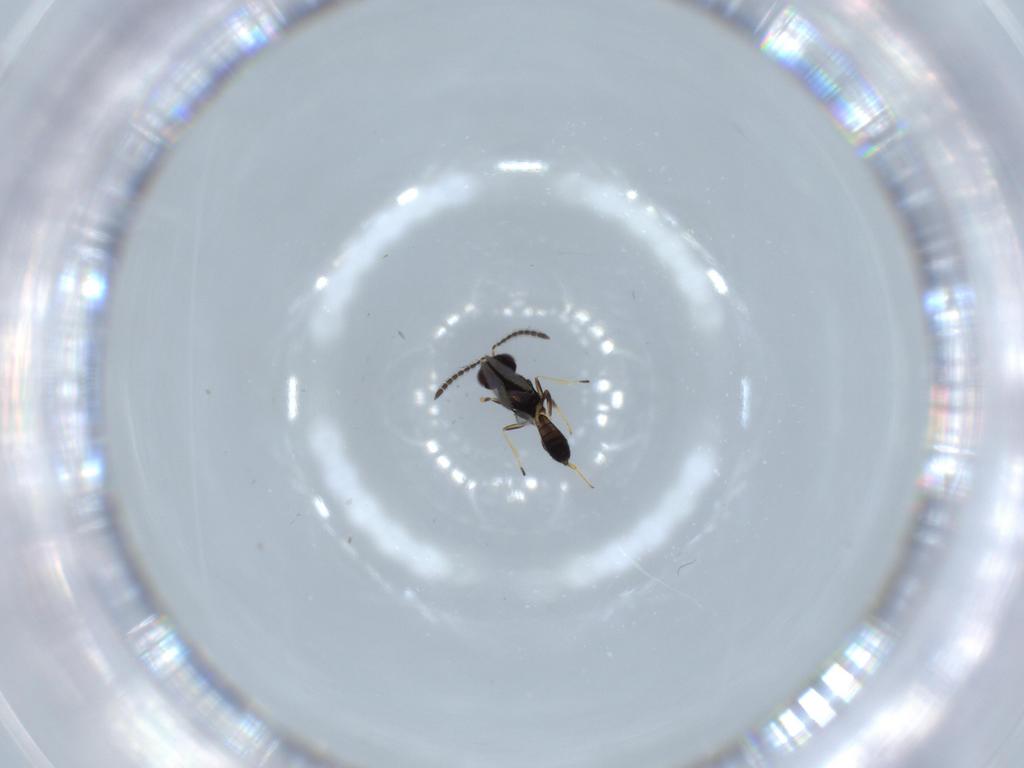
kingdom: Animalia
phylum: Arthropoda
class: Insecta
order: Hymenoptera
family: Eupelmidae
